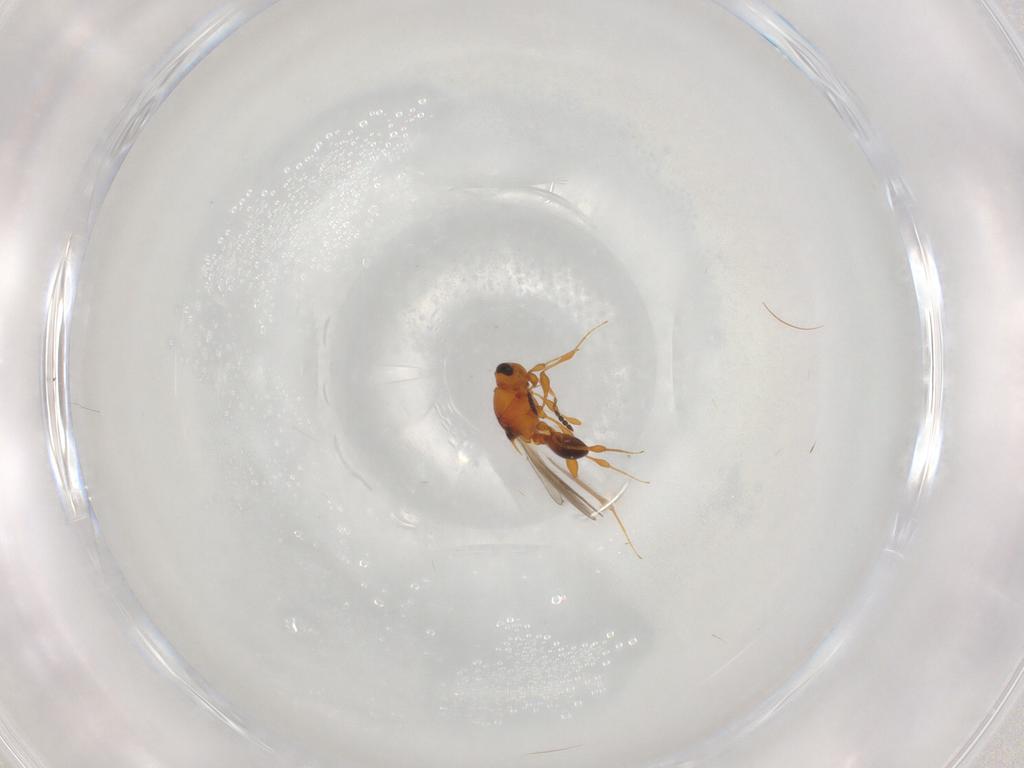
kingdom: Animalia
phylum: Arthropoda
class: Insecta
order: Hymenoptera
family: Platygastridae
